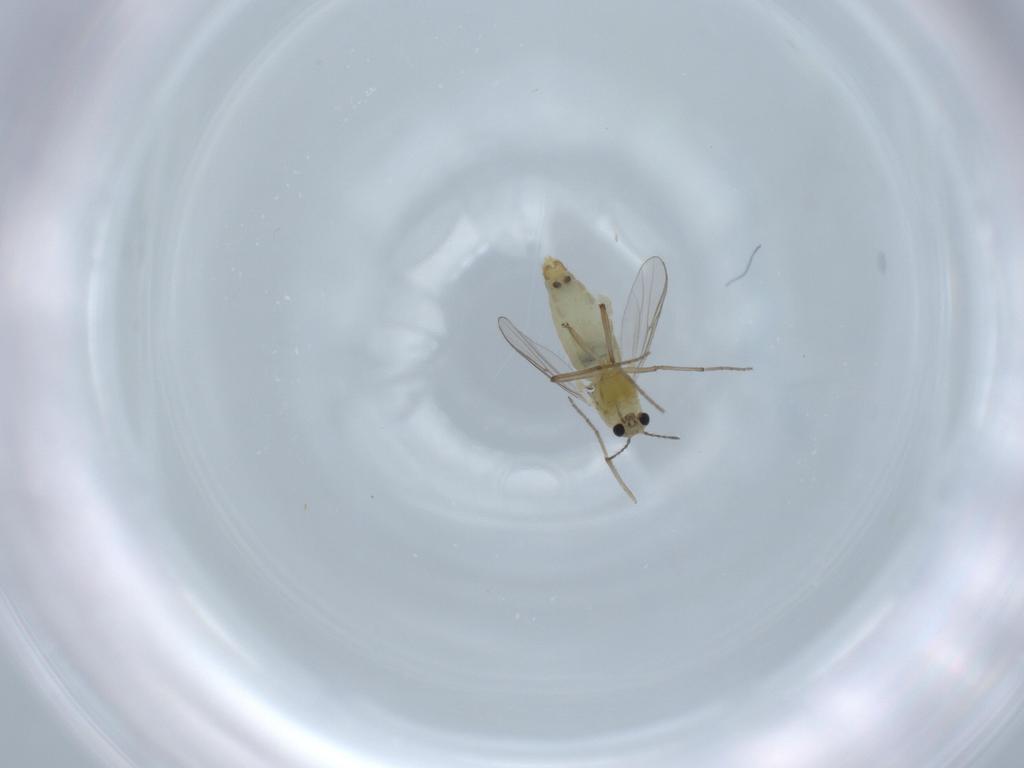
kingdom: Animalia
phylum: Arthropoda
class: Insecta
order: Diptera
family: Chironomidae
